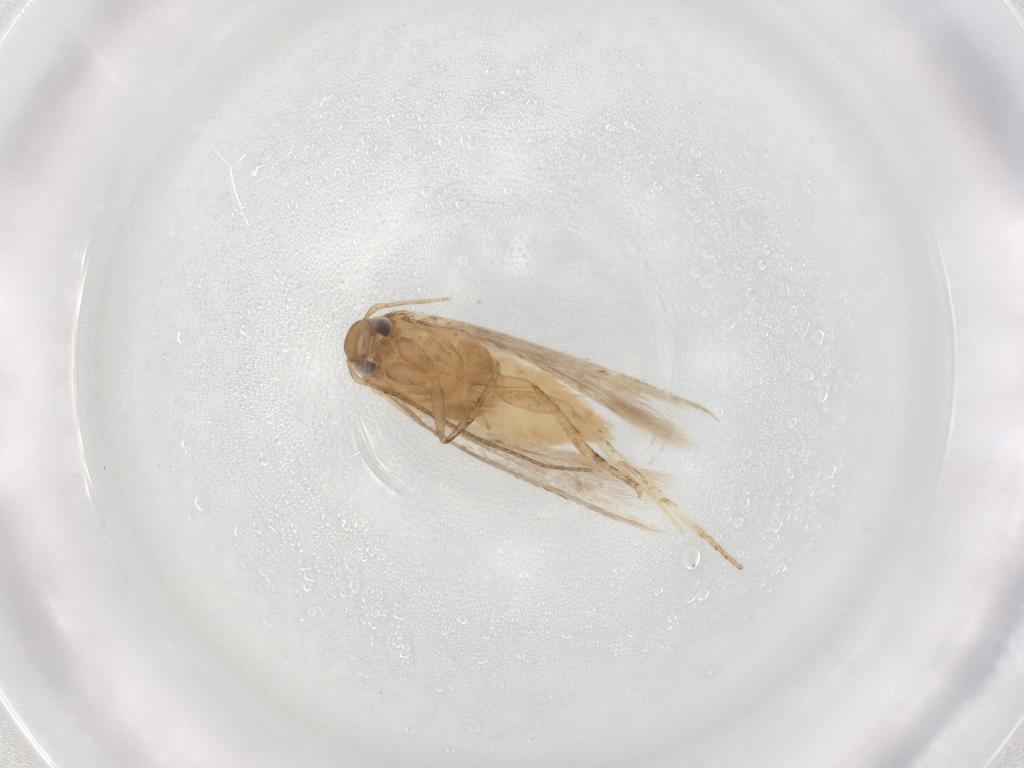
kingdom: Animalia
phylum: Arthropoda
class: Insecta
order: Lepidoptera
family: Gelechiidae
